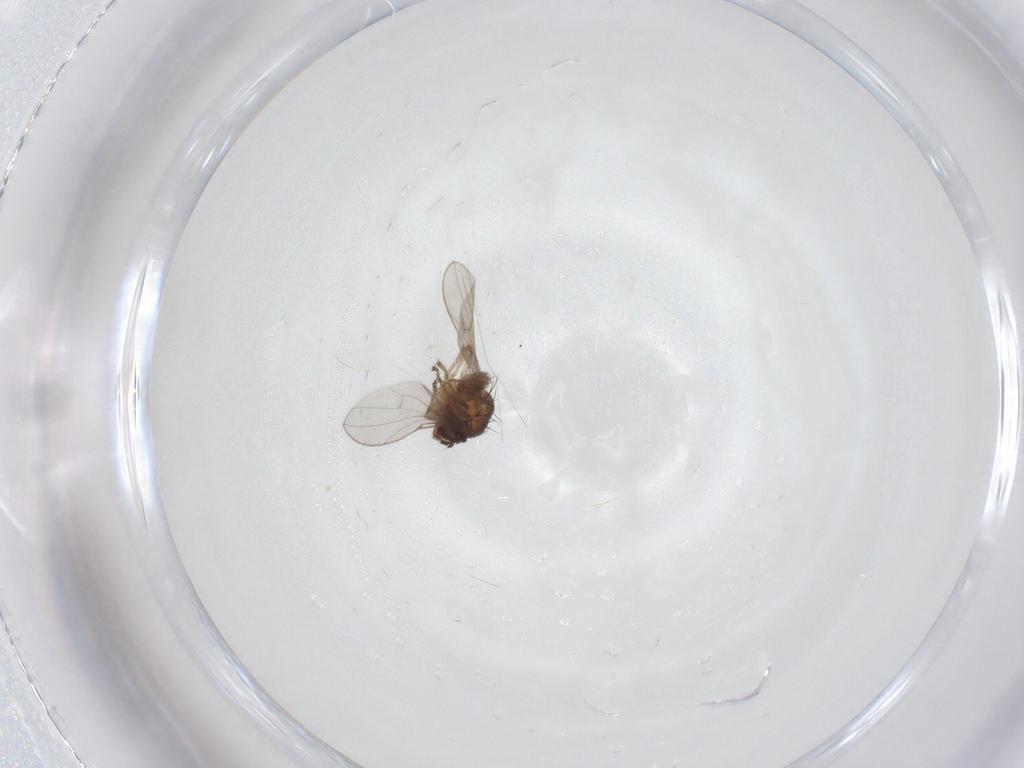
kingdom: Animalia
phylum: Arthropoda
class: Insecta
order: Diptera
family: Ephydridae
